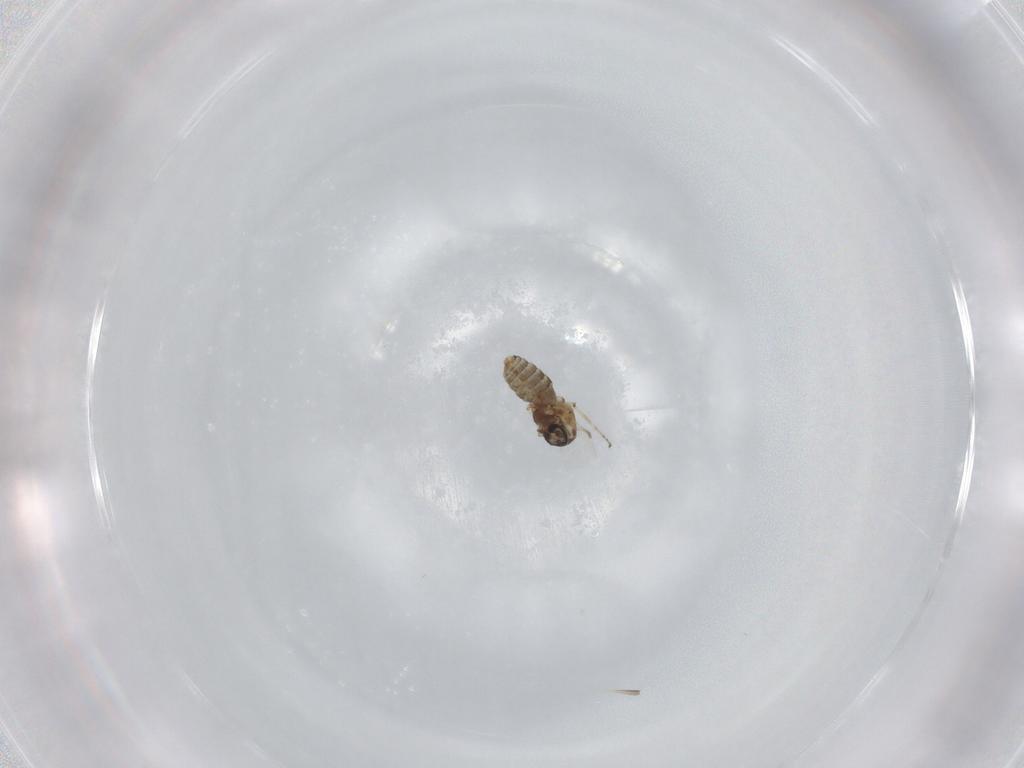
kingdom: Animalia
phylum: Arthropoda
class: Insecta
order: Diptera
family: Ceratopogonidae
